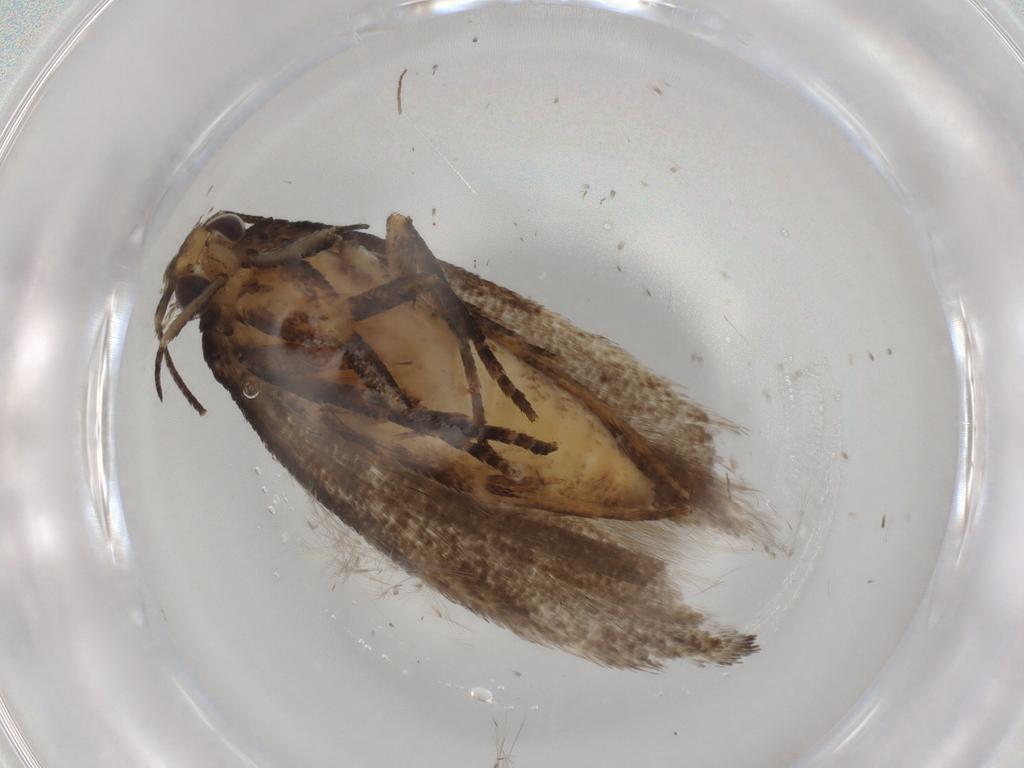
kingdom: Animalia
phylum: Arthropoda
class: Insecta
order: Lepidoptera
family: Gelechiidae
